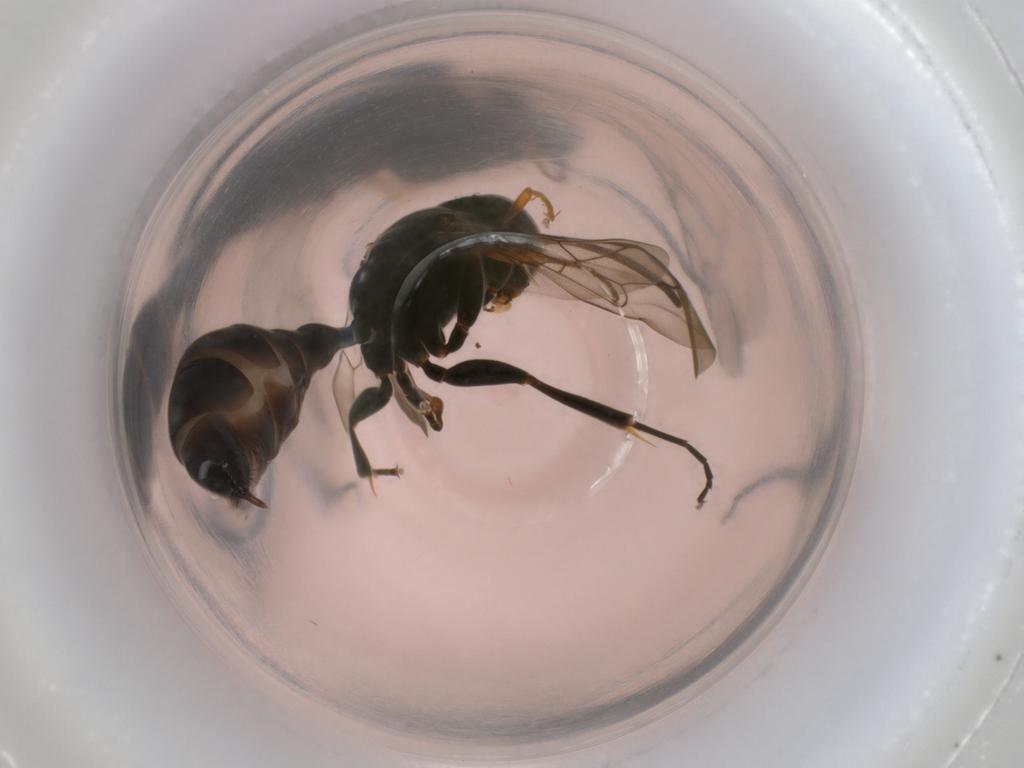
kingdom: Animalia
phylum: Arthropoda
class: Insecta
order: Hymenoptera
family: Crabronidae
